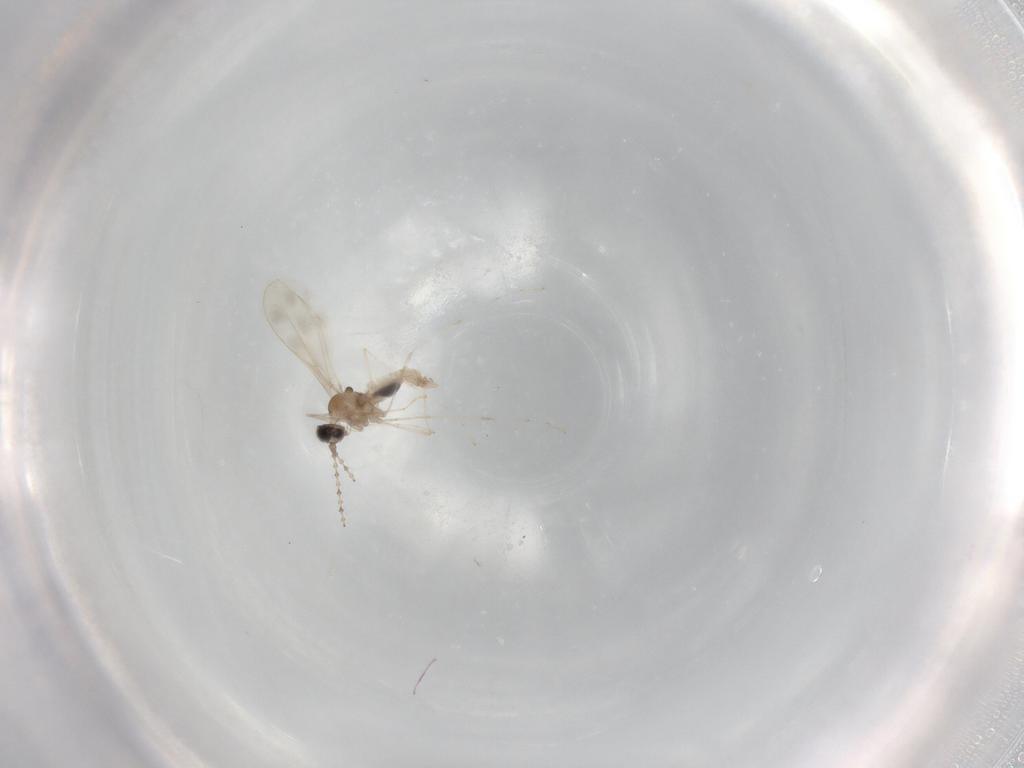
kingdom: Animalia
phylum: Arthropoda
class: Insecta
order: Diptera
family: Cecidomyiidae
